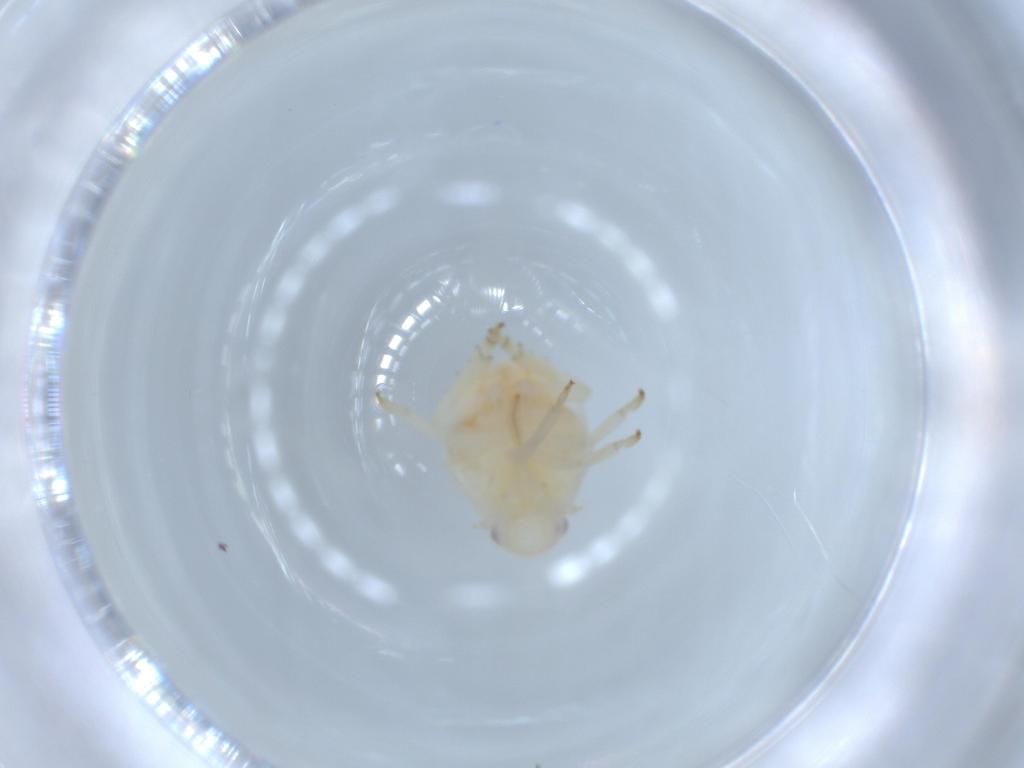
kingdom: Animalia
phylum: Arthropoda
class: Insecta
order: Hemiptera
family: Flatidae
